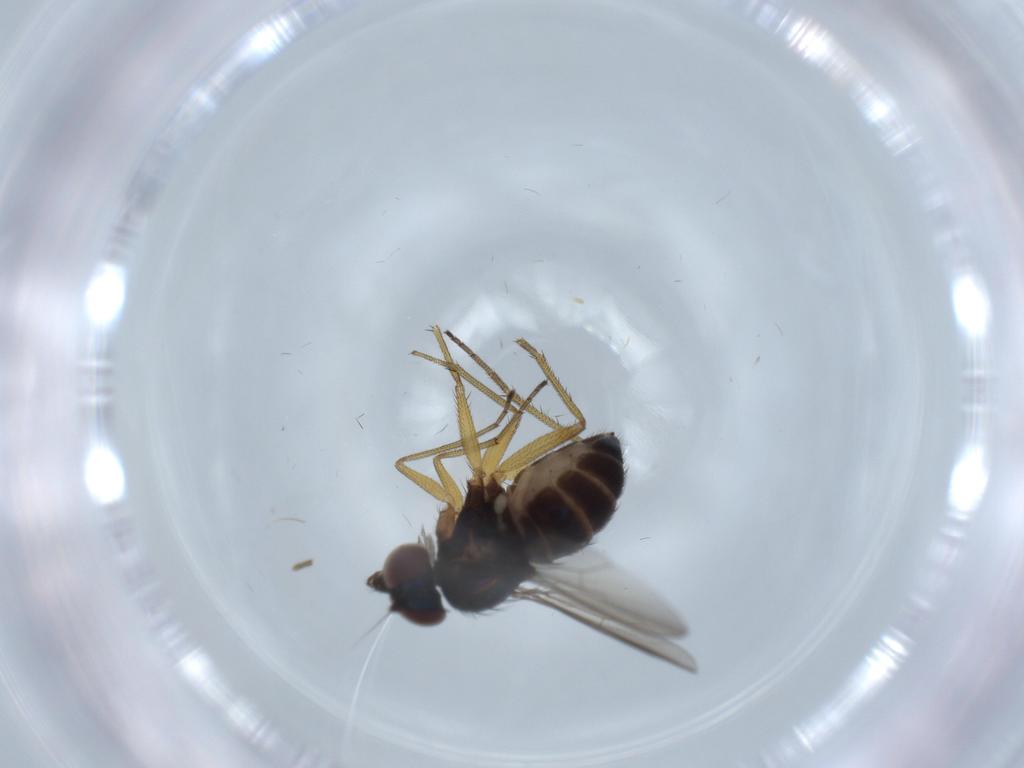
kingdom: Animalia
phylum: Arthropoda
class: Insecta
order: Diptera
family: Dolichopodidae
